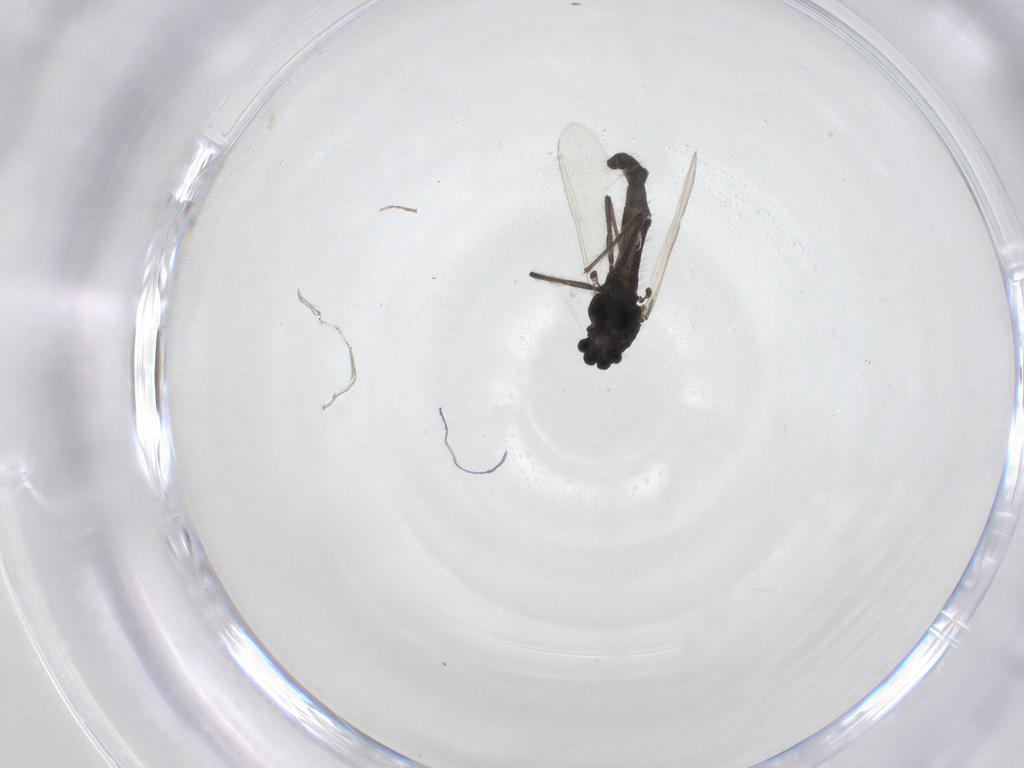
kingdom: Animalia
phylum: Arthropoda
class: Insecta
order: Diptera
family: Chironomidae
